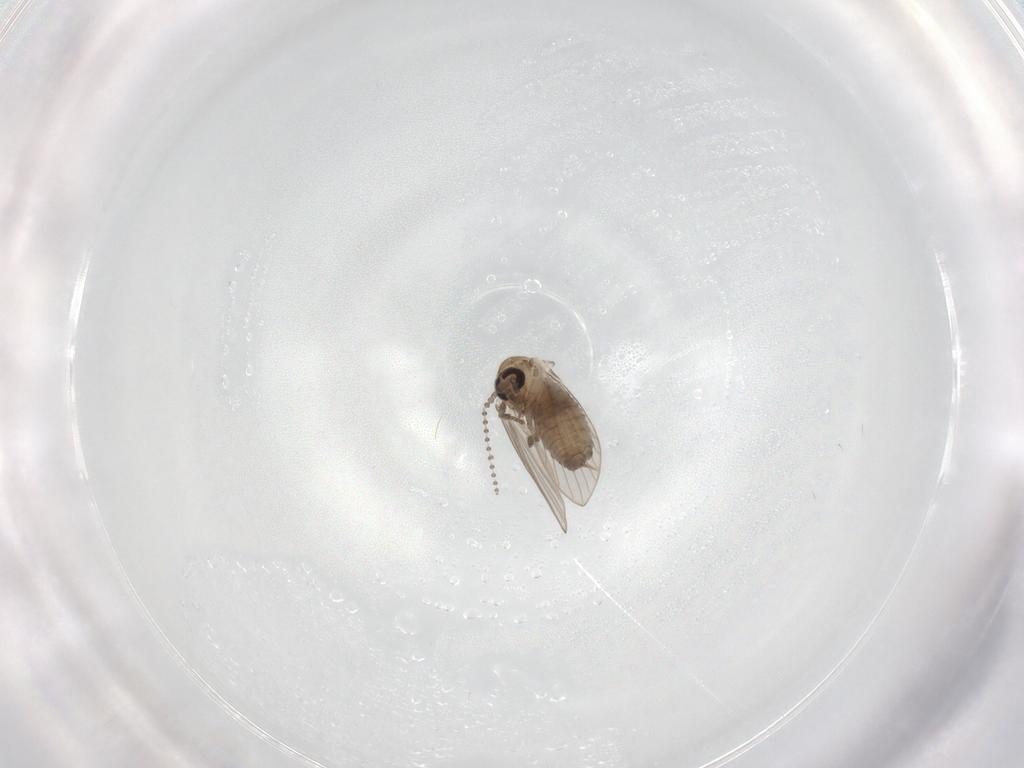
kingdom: Animalia
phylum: Arthropoda
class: Insecta
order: Diptera
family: Psychodidae
